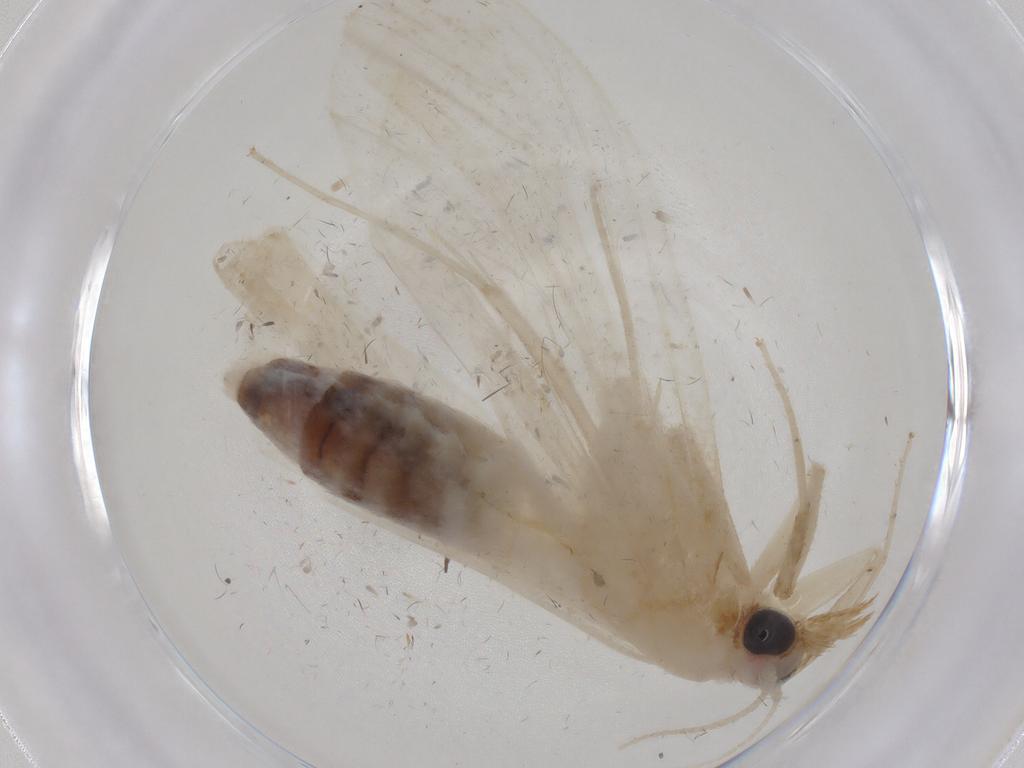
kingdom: Animalia
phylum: Arthropoda
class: Insecta
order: Lepidoptera
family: Crambidae
